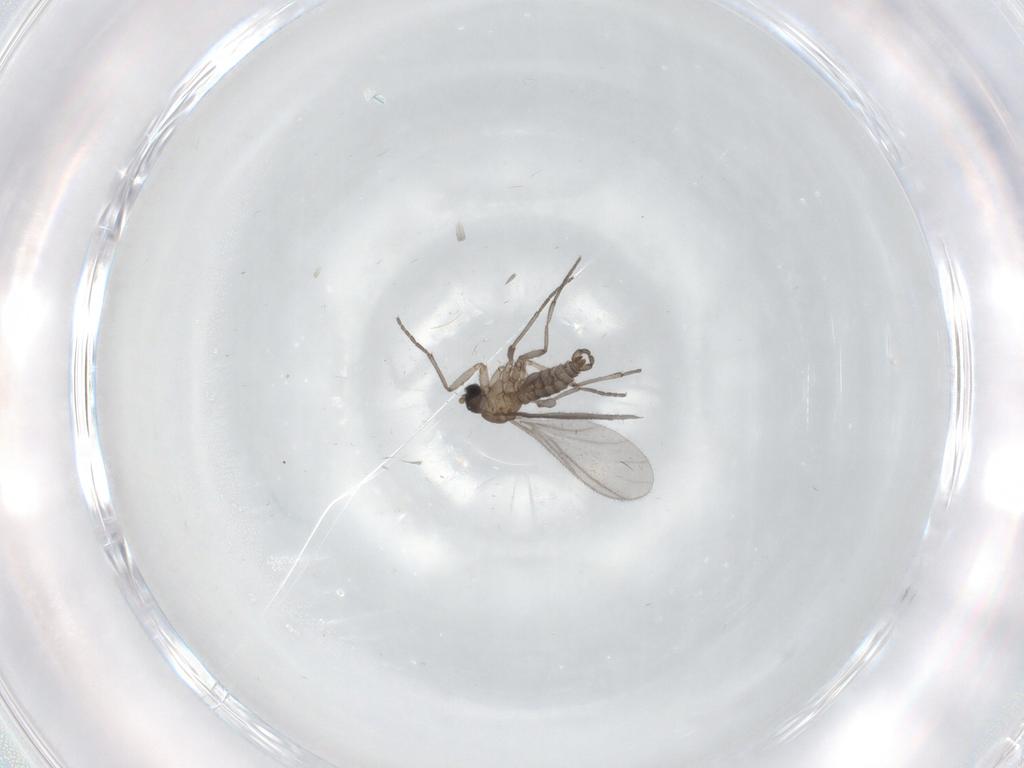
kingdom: Animalia
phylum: Arthropoda
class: Insecta
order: Diptera
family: Sciaridae
